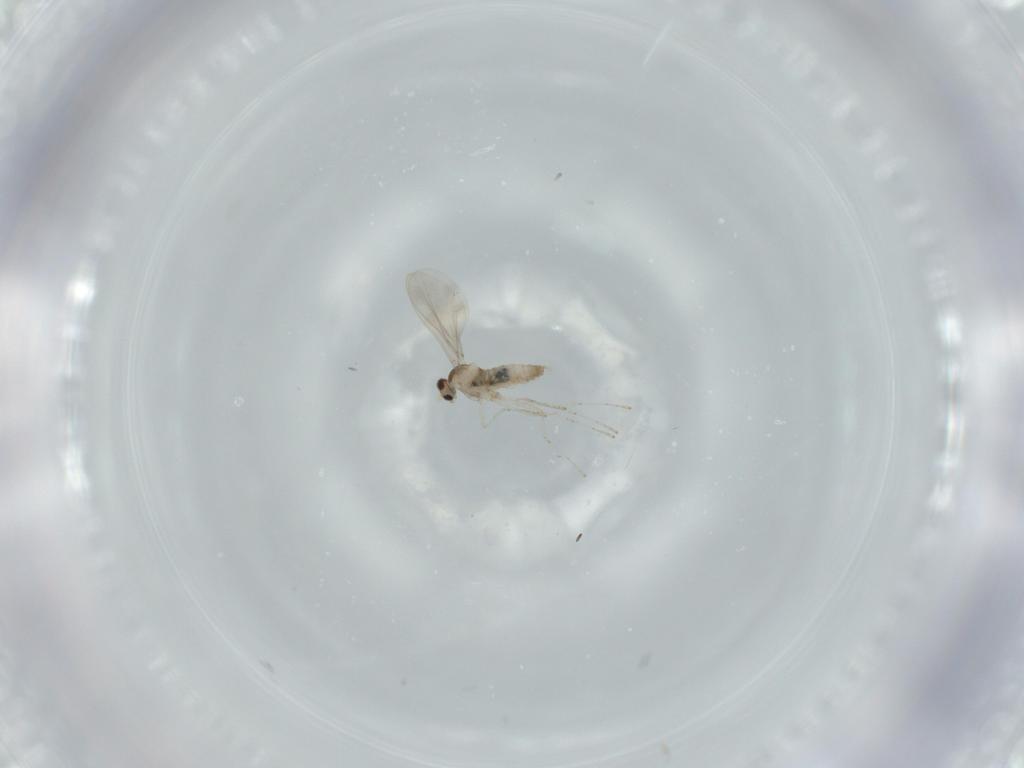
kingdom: Animalia
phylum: Arthropoda
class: Insecta
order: Diptera
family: Cecidomyiidae
